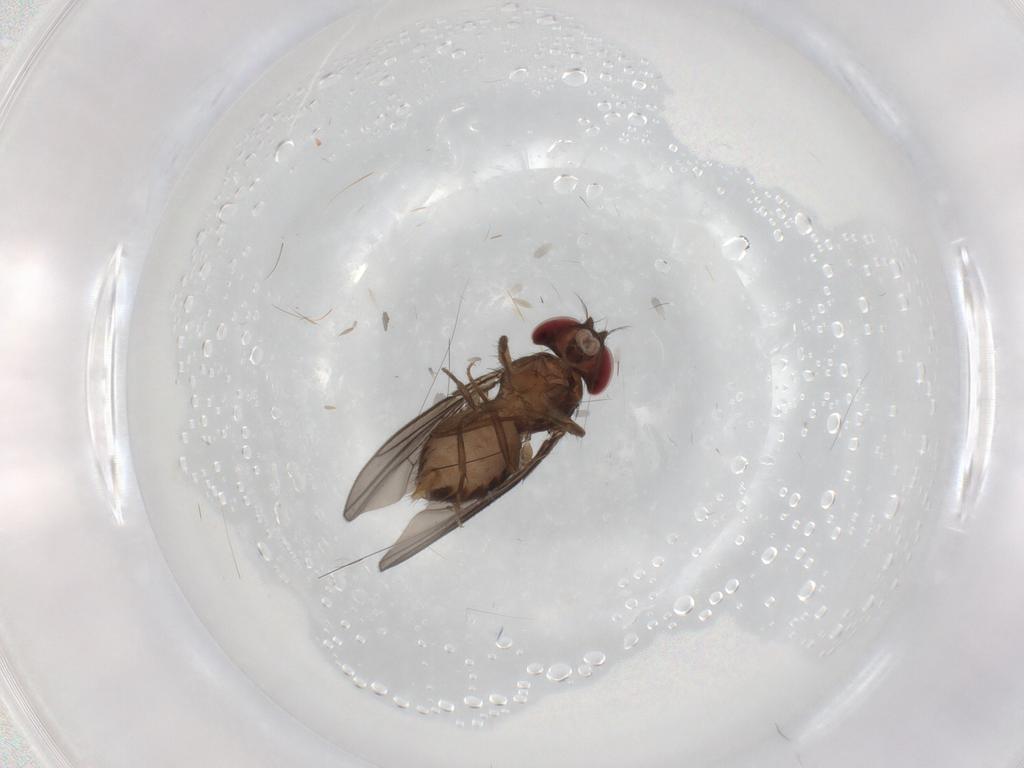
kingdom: Animalia
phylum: Arthropoda
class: Insecta
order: Diptera
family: Drosophilidae
